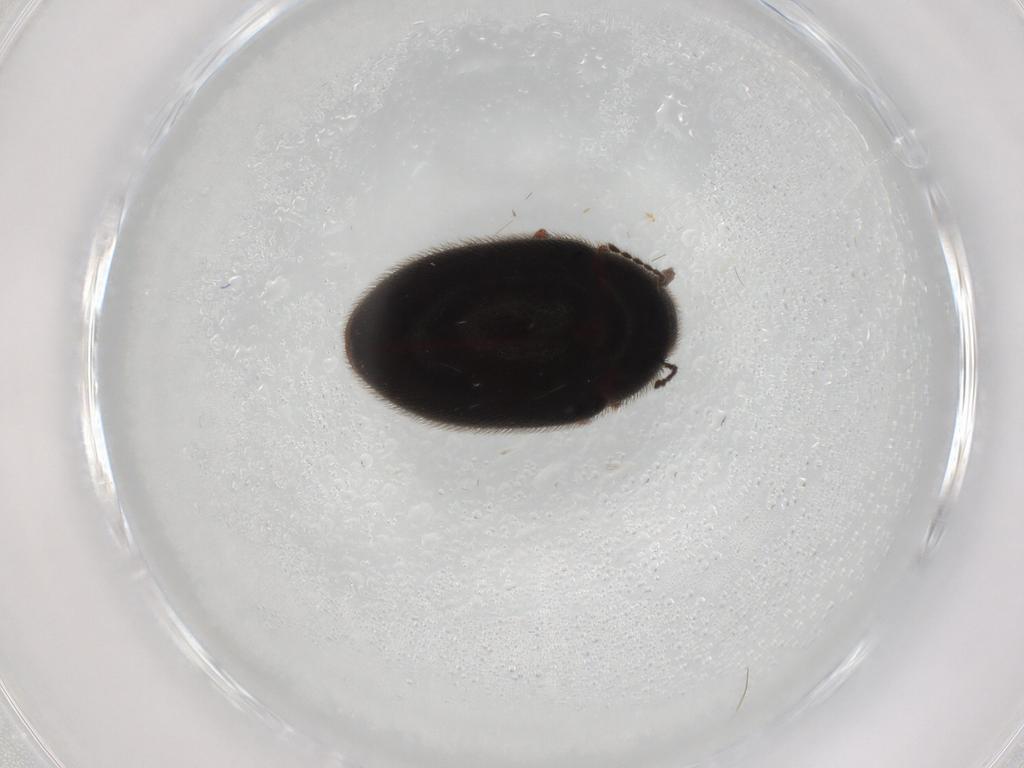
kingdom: Animalia
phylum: Arthropoda
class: Insecta
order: Coleoptera
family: Limnichidae
